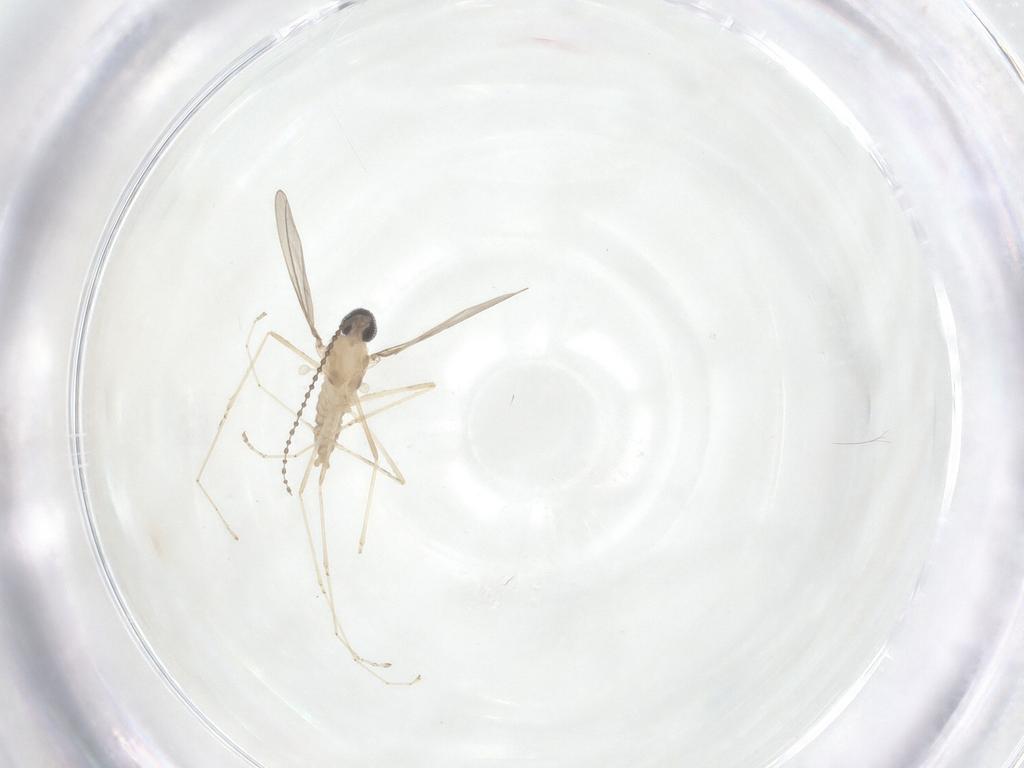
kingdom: Animalia
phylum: Arthropoda
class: Insecta
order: Diptera
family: Cecidomyiidae
